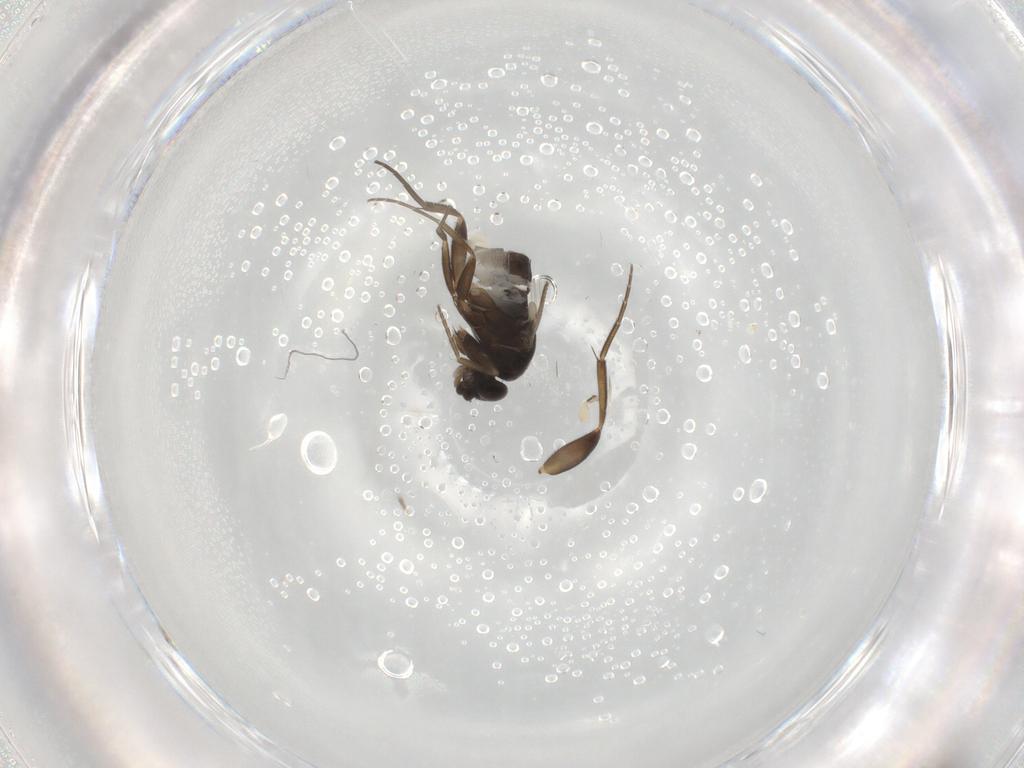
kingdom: Animalia
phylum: Arthropoda
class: Insecta
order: Diptera
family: Phoridae
